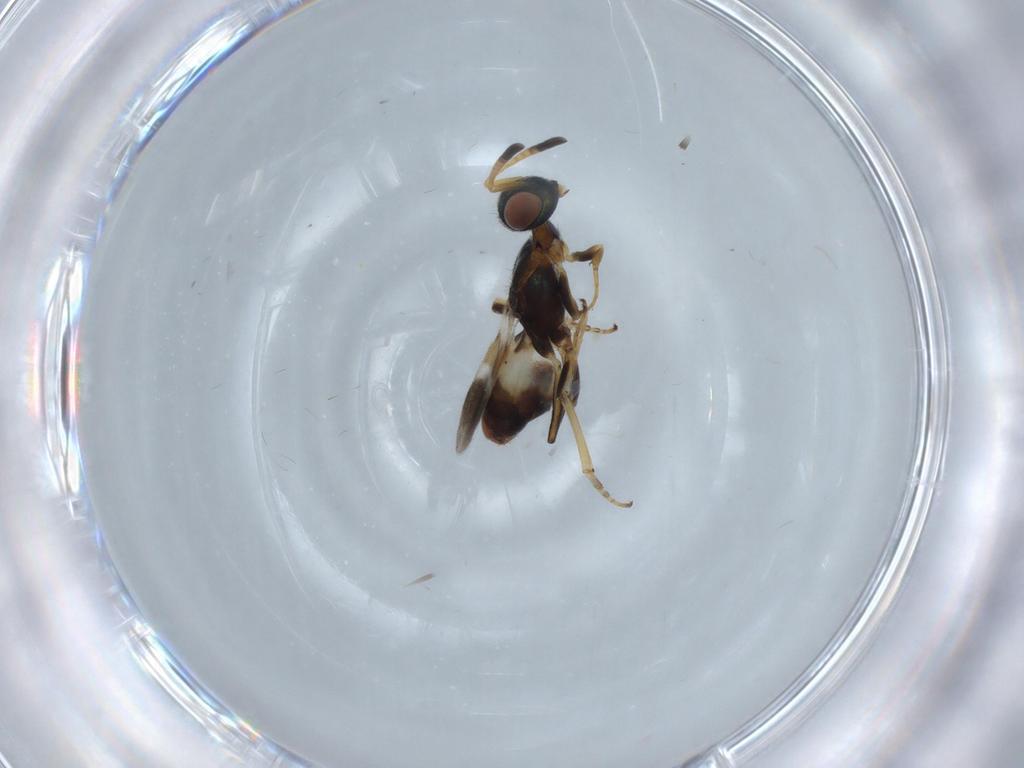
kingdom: Animalia
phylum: Arthropoda
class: Insecta
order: Hymenoptera
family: Eupelmidae
